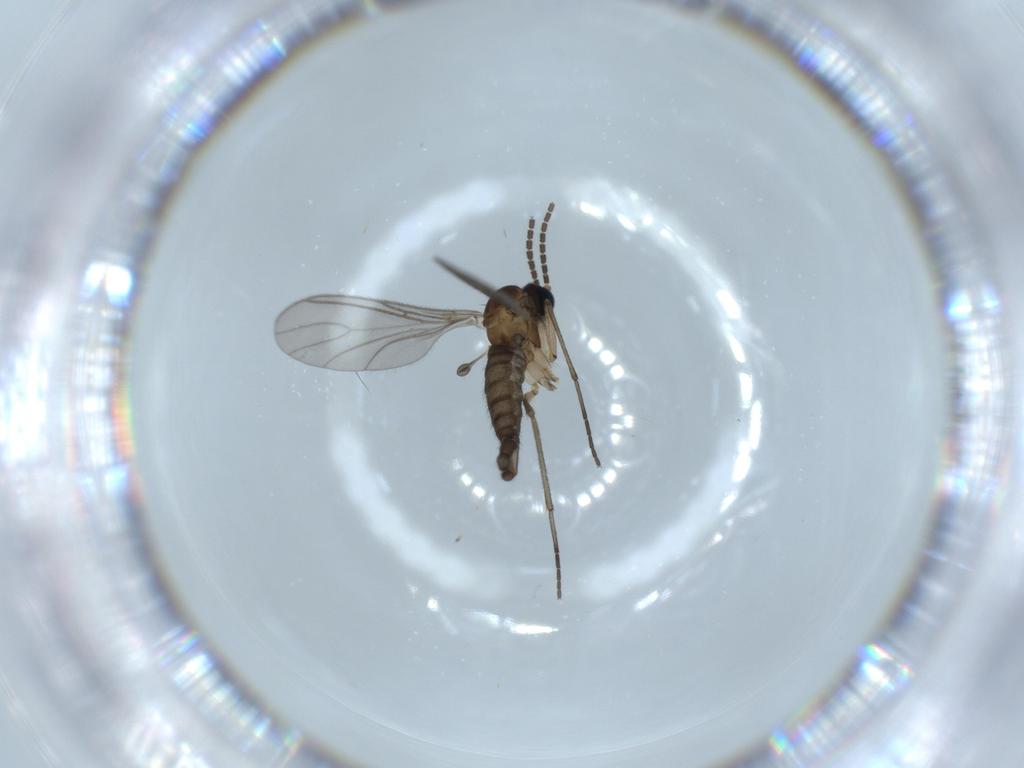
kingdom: Animalia
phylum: Arthropoda
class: Insecta
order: Diptera
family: Sciaridae
